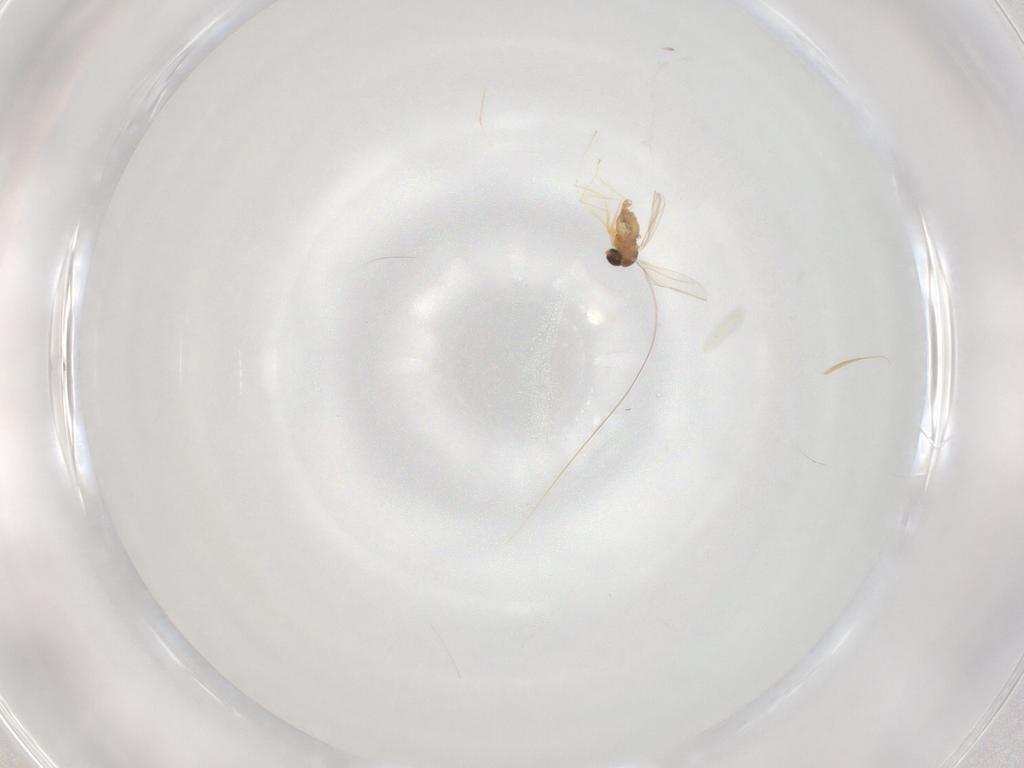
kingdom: Animalia
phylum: Arthropoda
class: Insecta
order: Diptera
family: Cecidomyiidae
